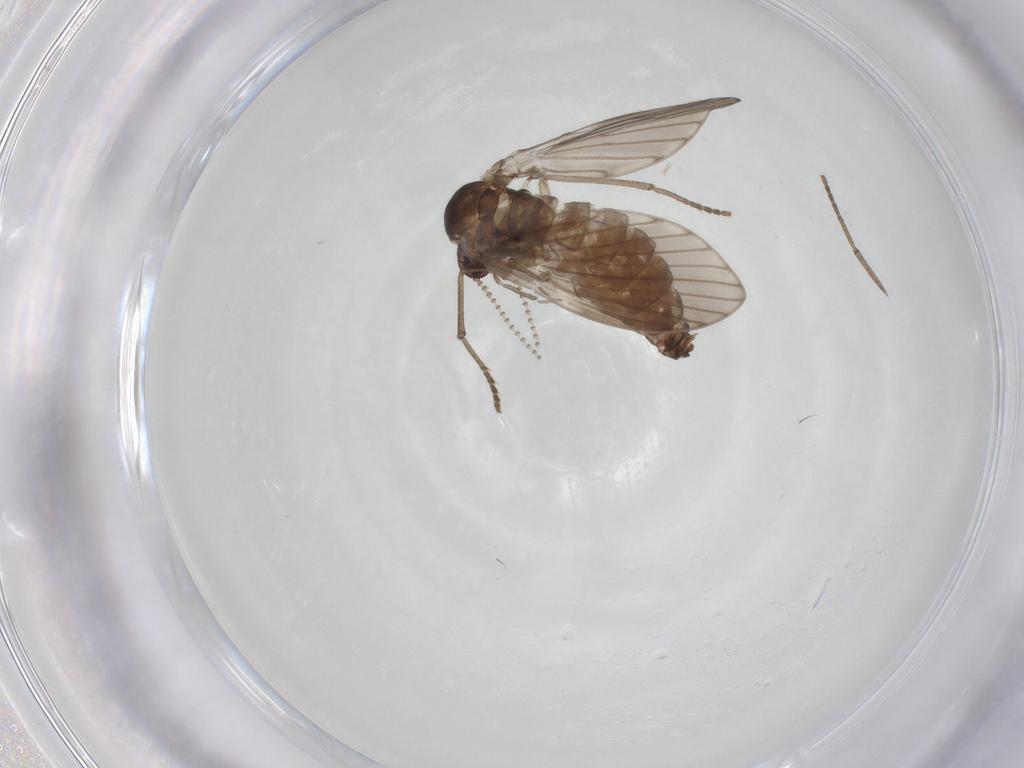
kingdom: Animalia
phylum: Arthropoda
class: Insecta
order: Diptera
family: Psychodidae
